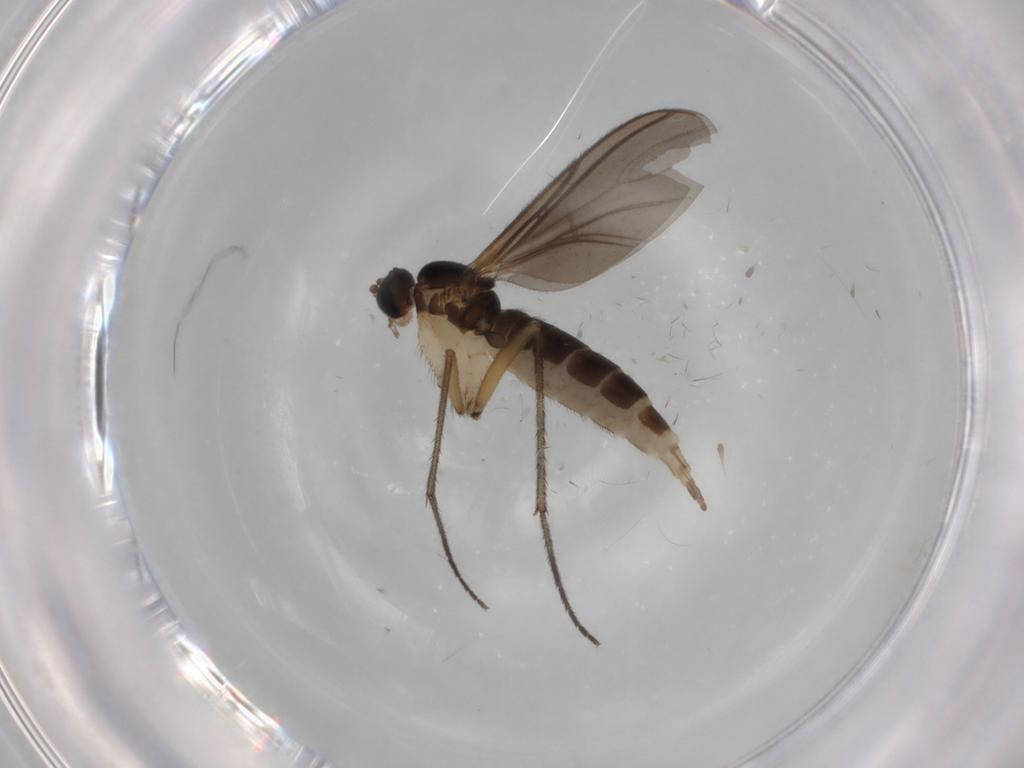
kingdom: Animalia
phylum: Arthropoda
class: Insecta
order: Diptera
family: Sciaridae
